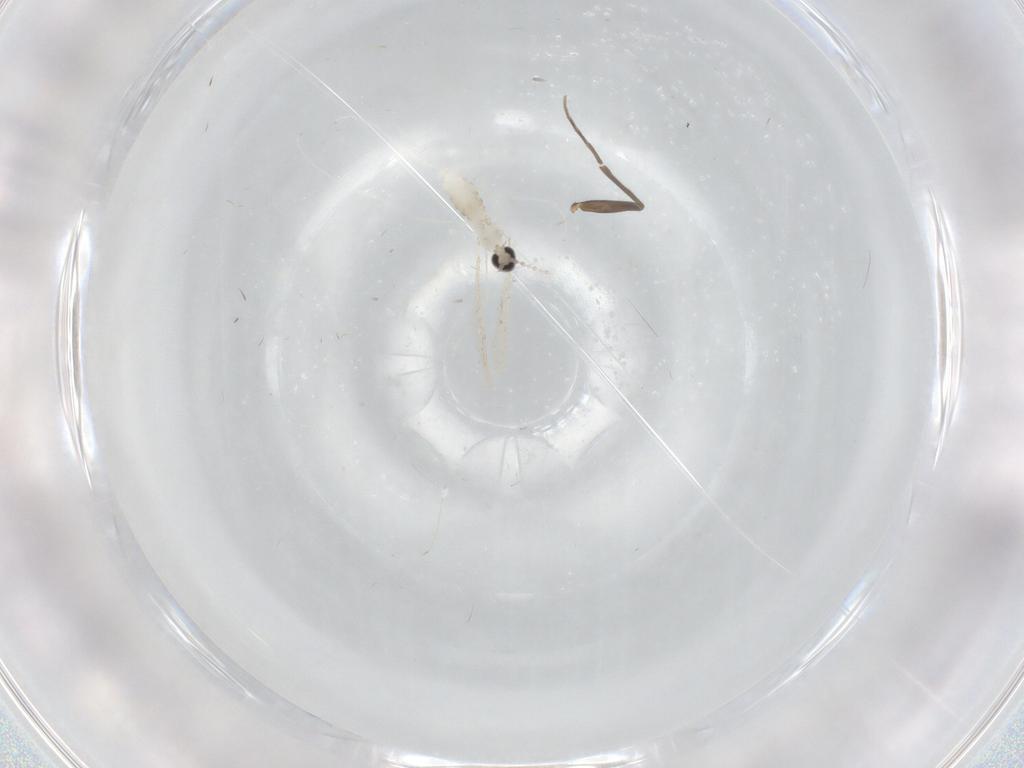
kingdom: Animalia
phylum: Arthropoda
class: Insecta
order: Diptera
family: Cecidomyiidae
